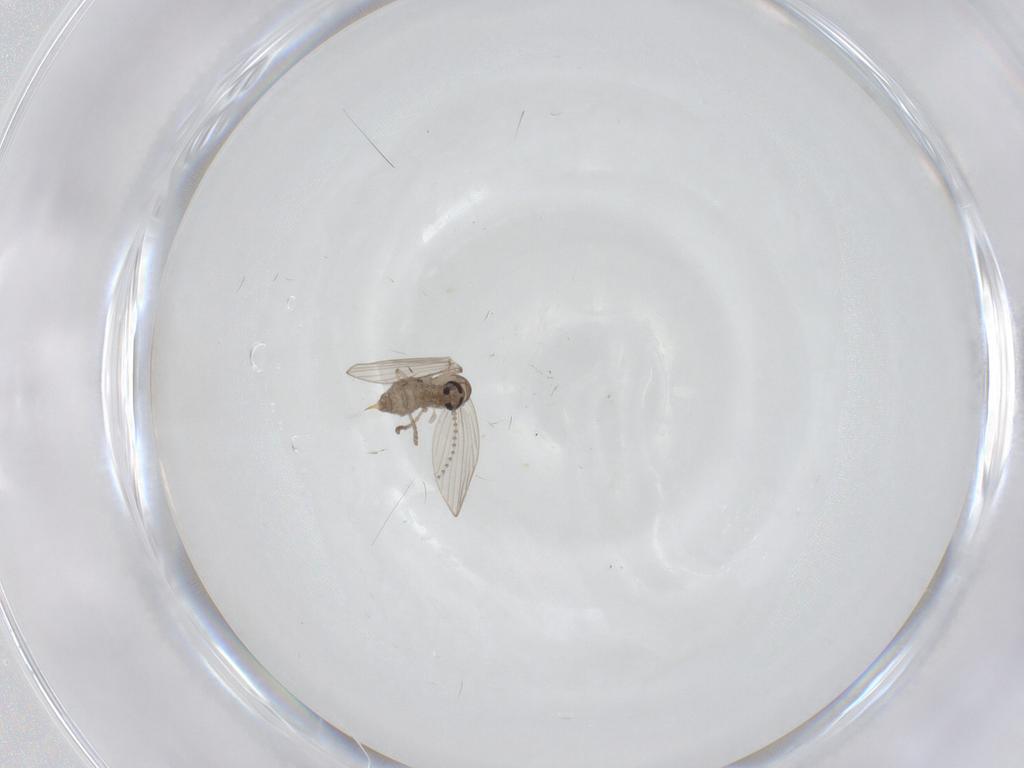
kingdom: Animalia
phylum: Arthropoda
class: Insecta
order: Diptera
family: Psychodidae
